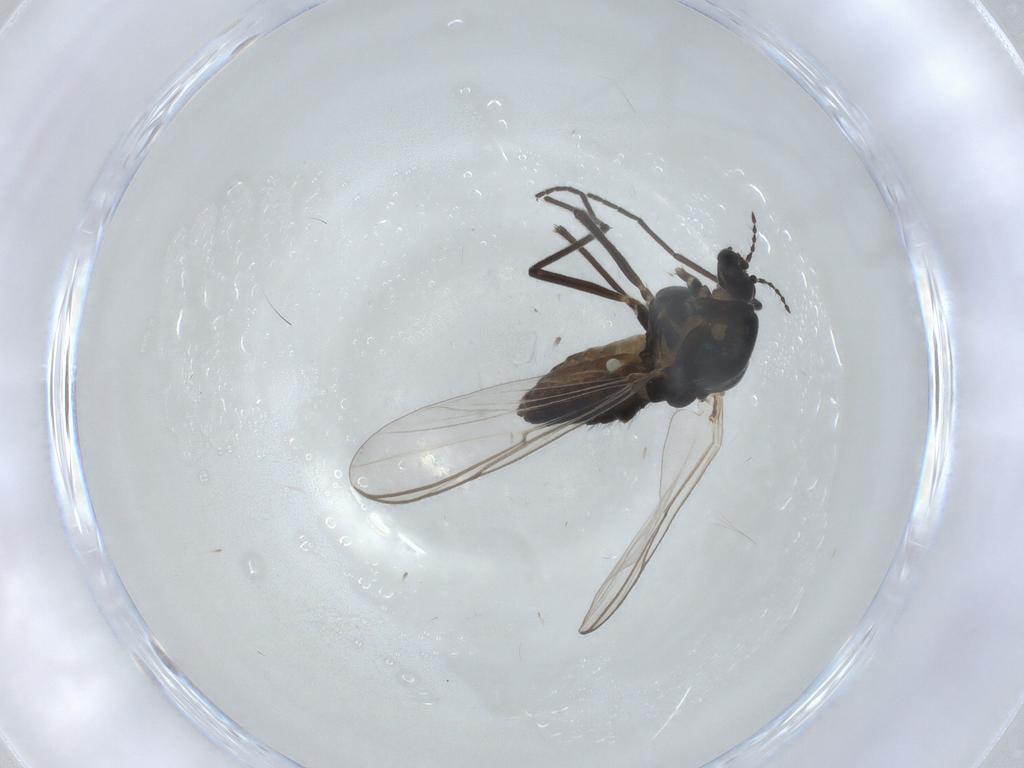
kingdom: Animalia
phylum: Arthropoda
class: Insecta
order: Diptera
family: Chironomidae
